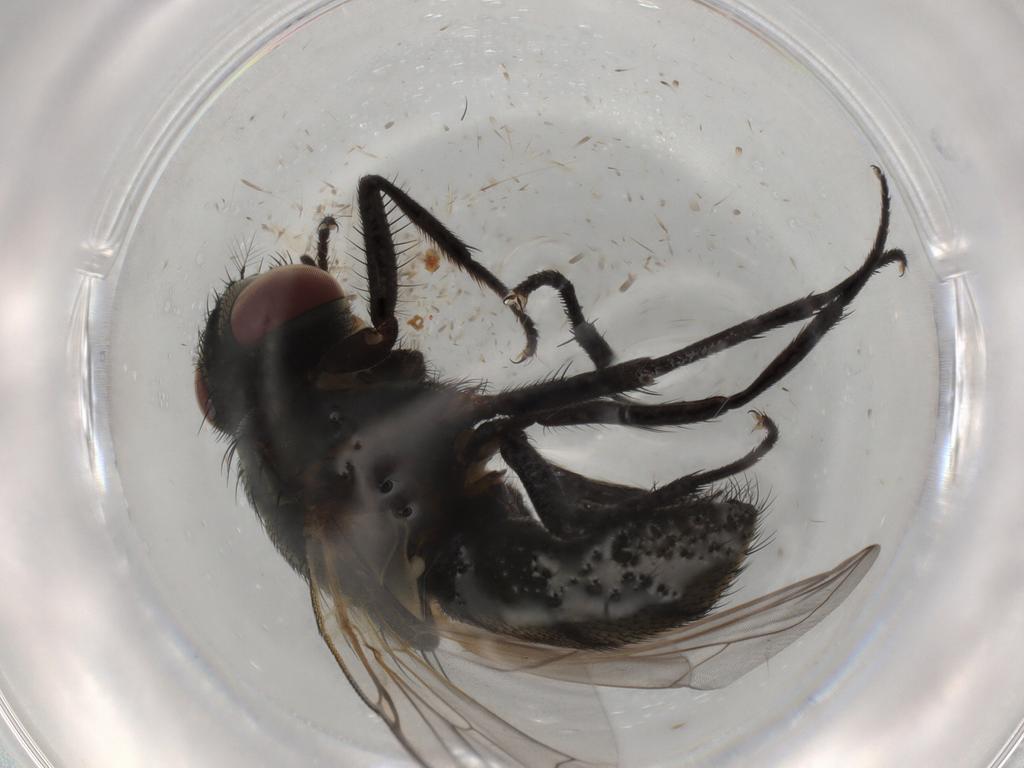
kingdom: Animalia
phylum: Arthropoda
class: Insecta
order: Diptera
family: Muscidae
